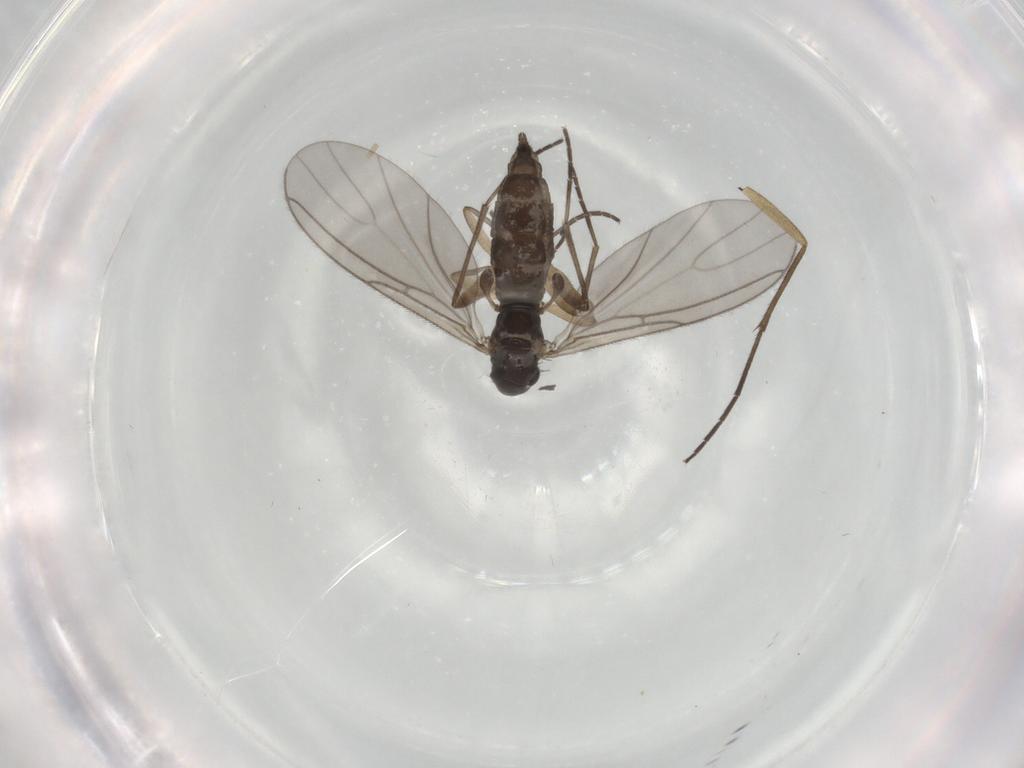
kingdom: Animalia
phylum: Arthropoda
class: Insecta
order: Diptera
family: Sciaridae
